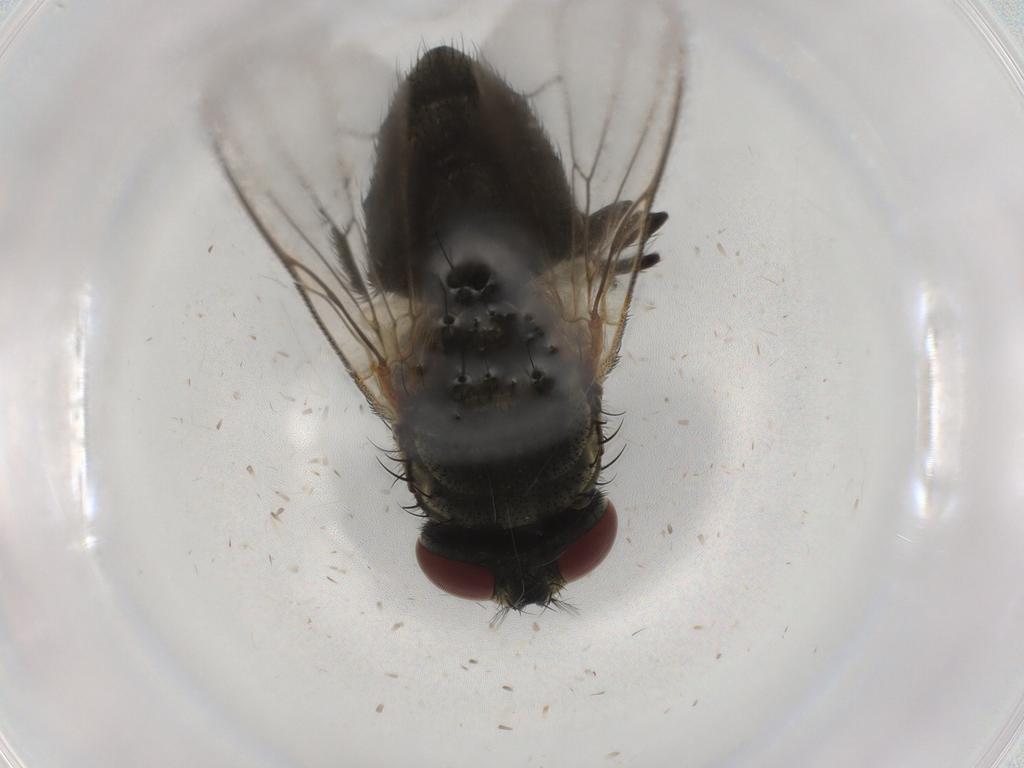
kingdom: Animalia
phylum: Arthropoda
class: Insecta
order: Diptera
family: Muscidae
